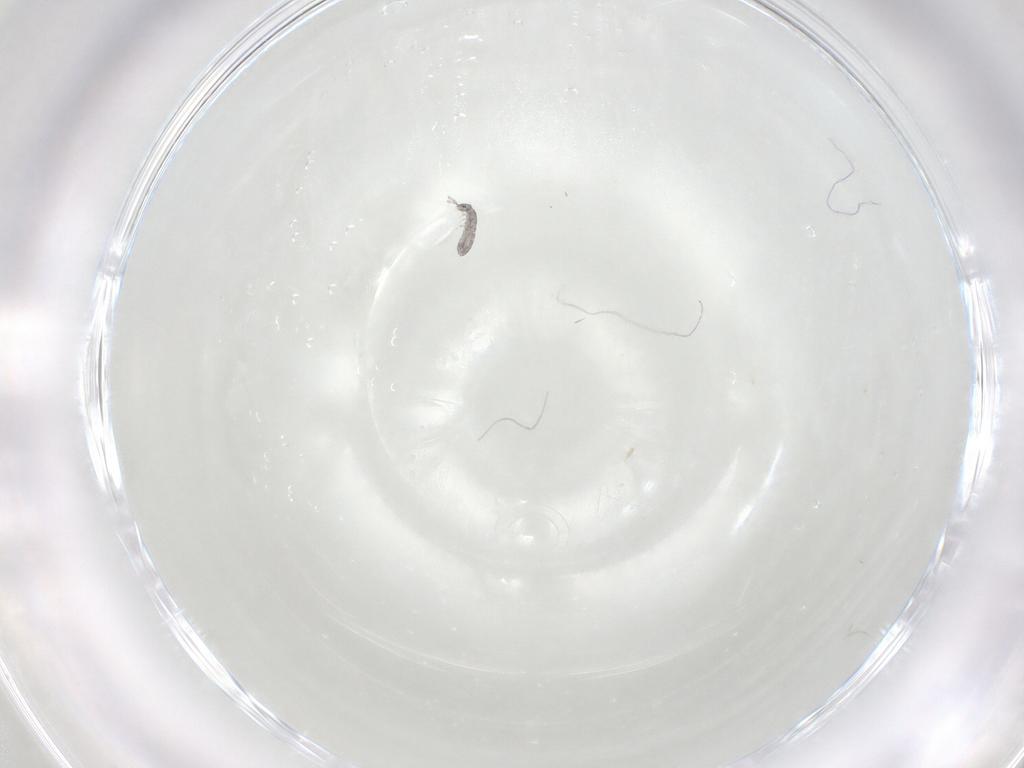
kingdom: Animalia
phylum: Arthropoda
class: Collembola
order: Entomobryomorpha
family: Isotomidae
